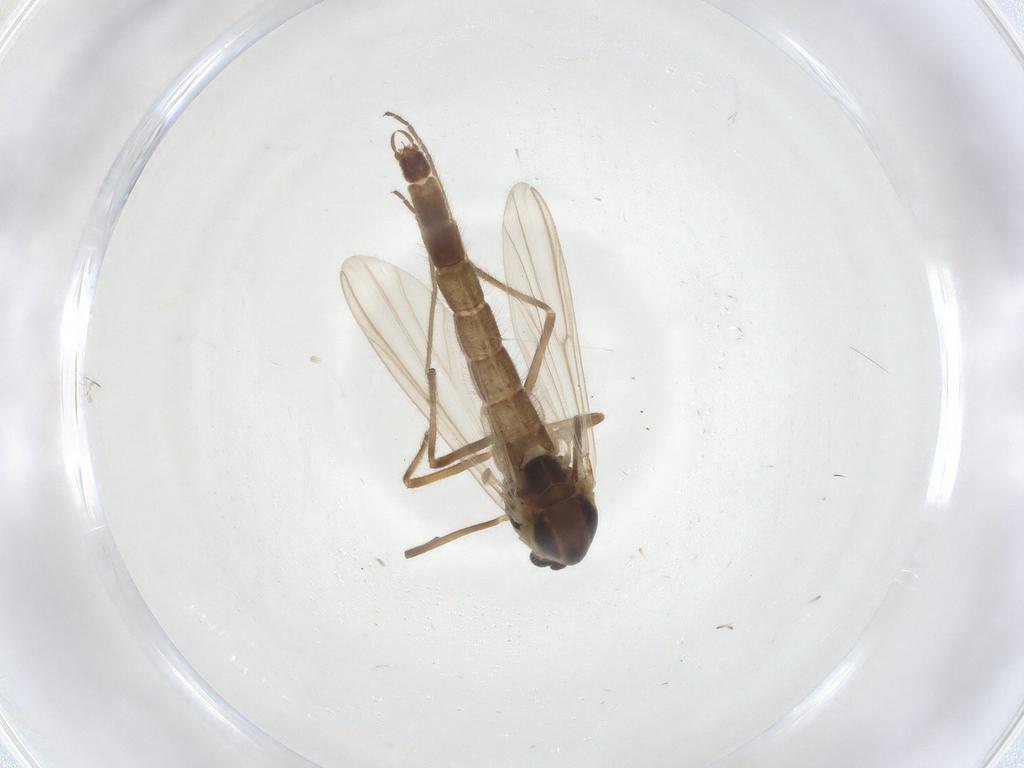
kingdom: Animalia
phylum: Arthropoda
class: Insecta
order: Diptera
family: Chironomidae
